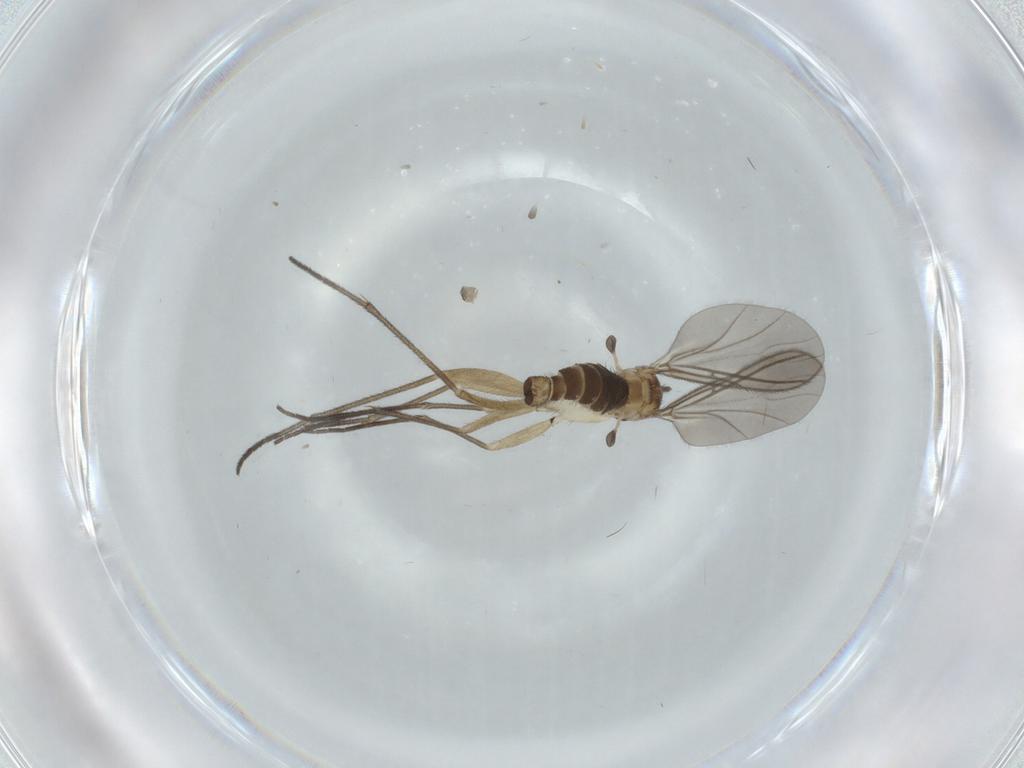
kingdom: Animalia
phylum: Arthropoda
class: Insecta
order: Diptera
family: Sciaridae
